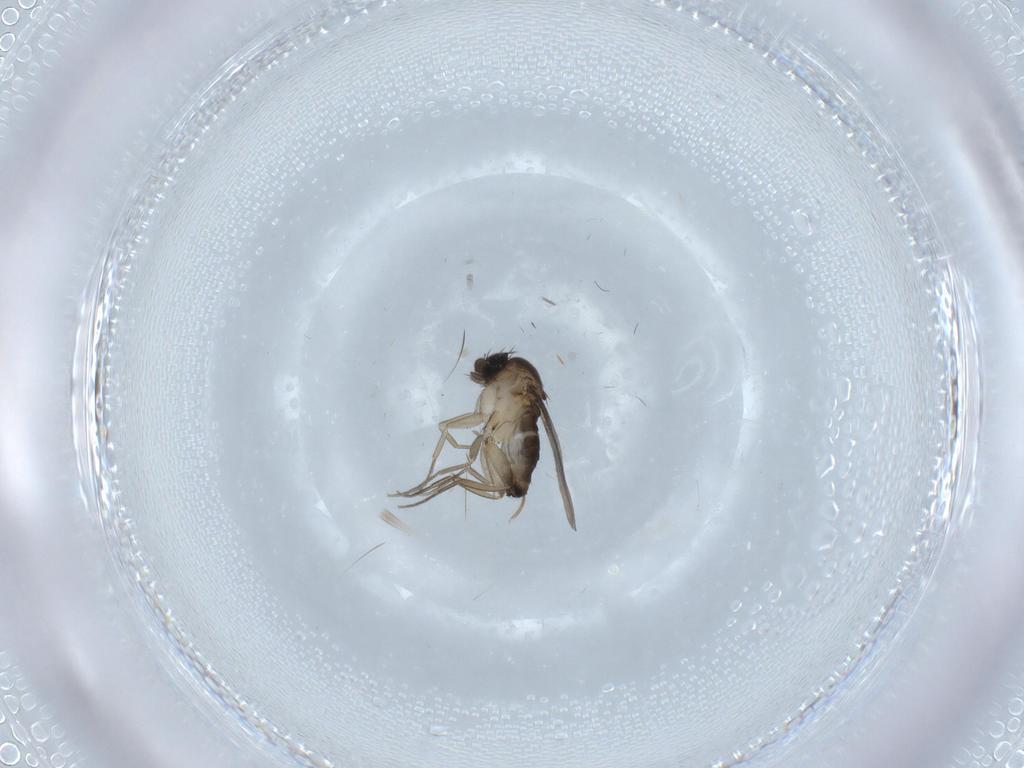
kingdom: Animalia
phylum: Arthropoda
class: Insecta
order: Diptera
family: Phoridae
